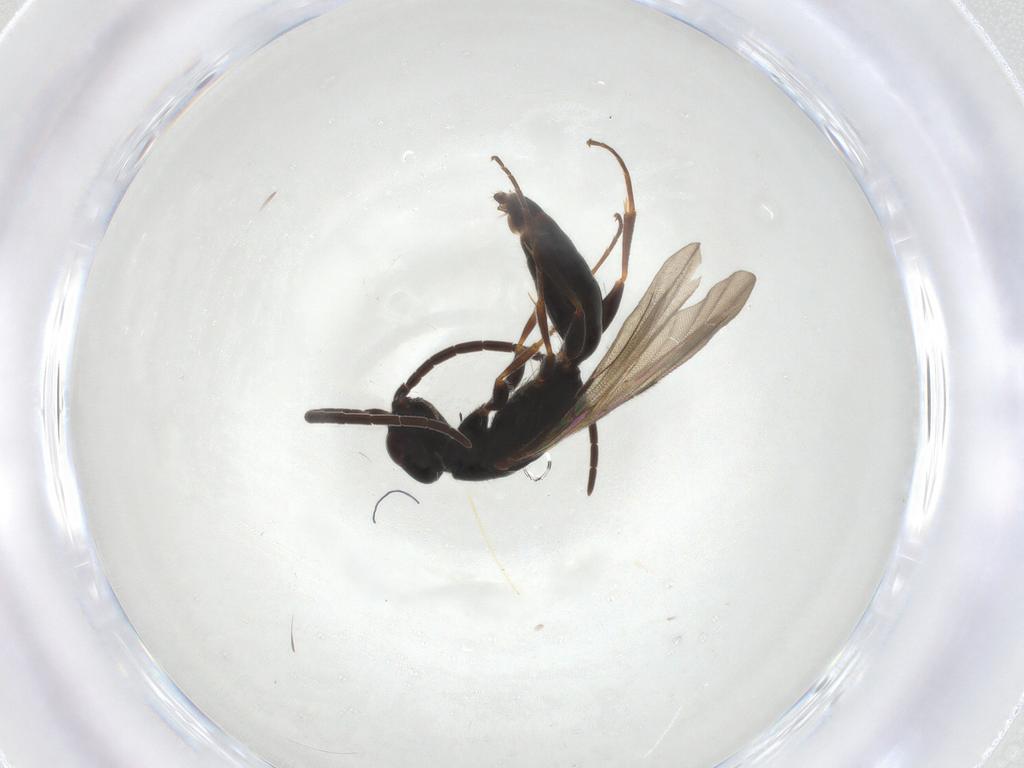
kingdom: Animalia
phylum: Arthropoda
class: Insecta
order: Hymenoptera
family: Bethylidae
